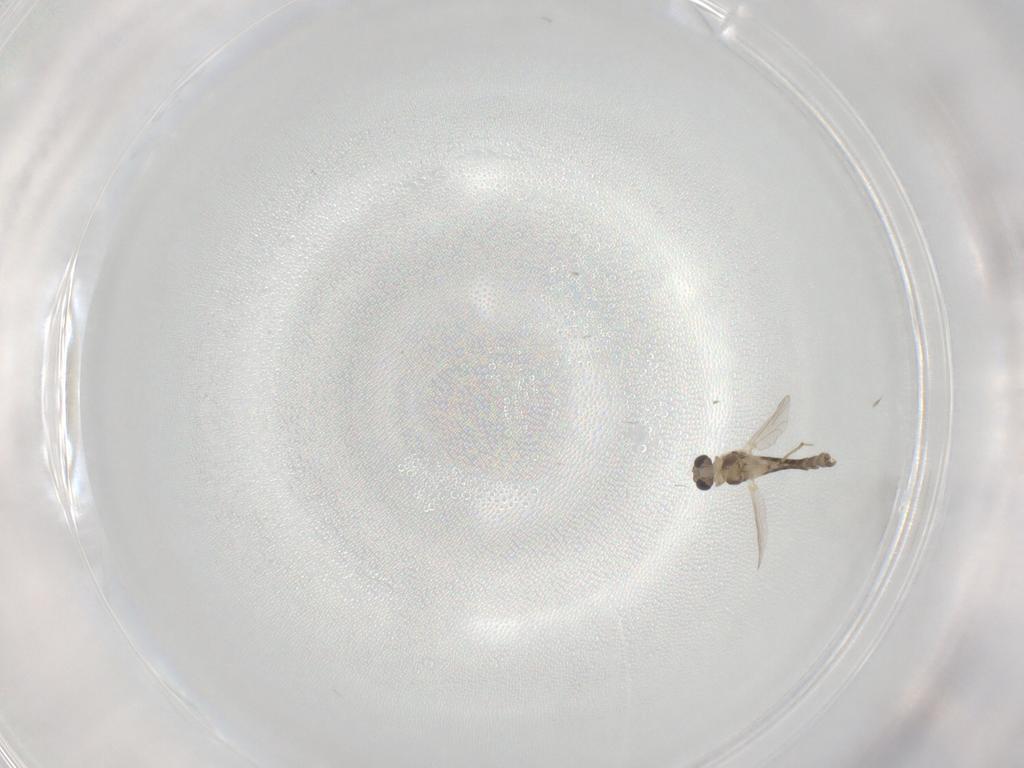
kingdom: Animalia
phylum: Arthropoda
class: Insecta
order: Diptera
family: Chironomidae
